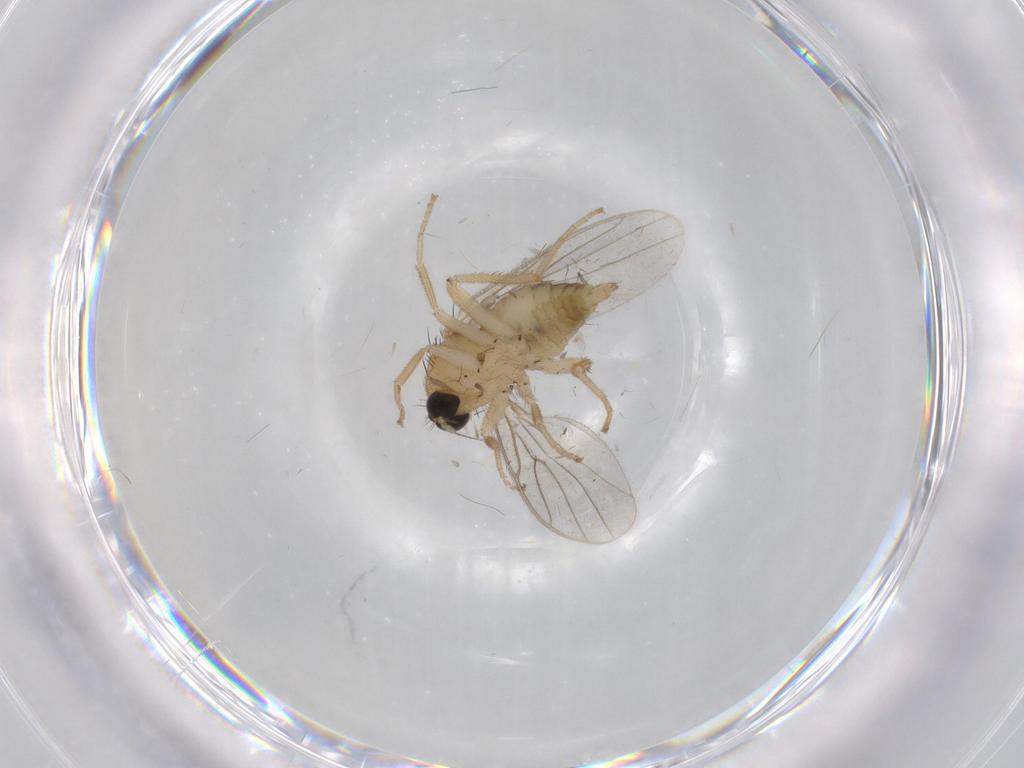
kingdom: Animalia
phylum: Arthropoda
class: Insecta
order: Diptera
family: Hybotidae
